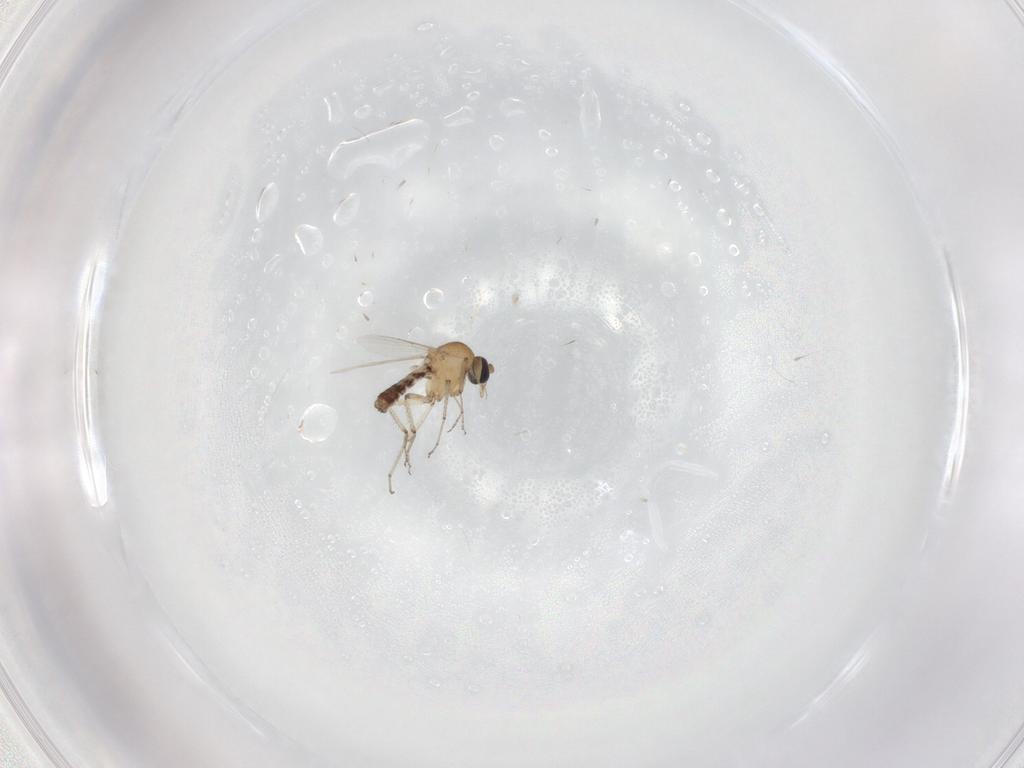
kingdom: Animalia
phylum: Arthropoda
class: Insecta
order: Diptera
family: Ceratopogonidae
